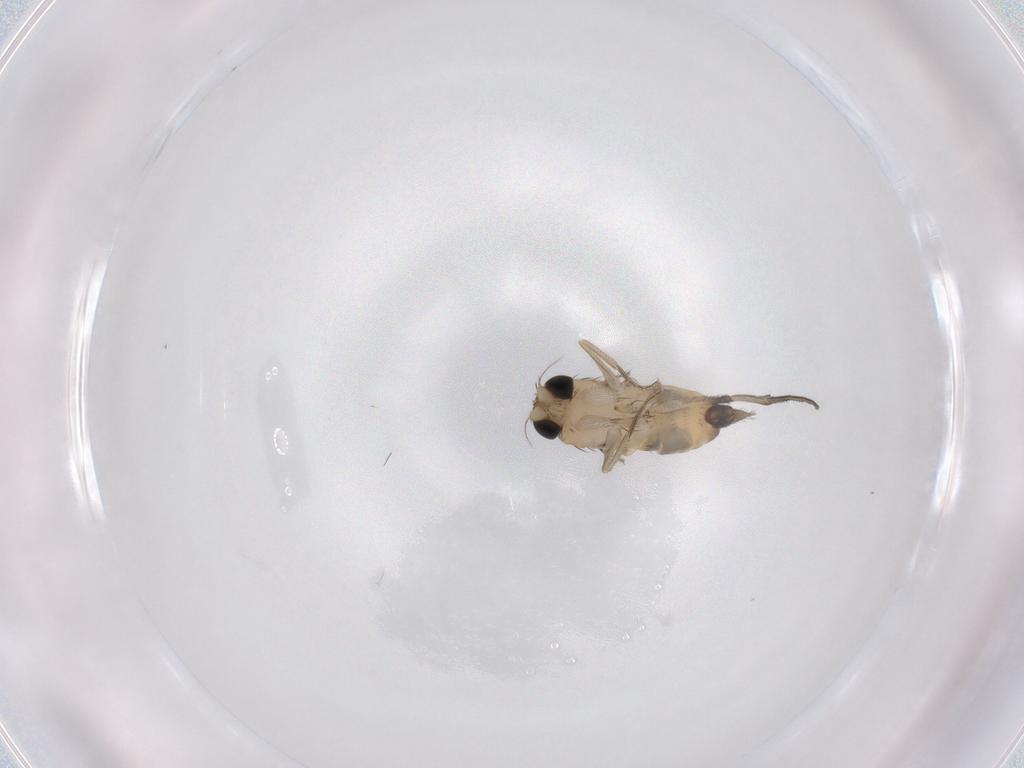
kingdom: Animalia
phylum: Arthropoda
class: Insecta
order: Diptera
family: Phoridae
